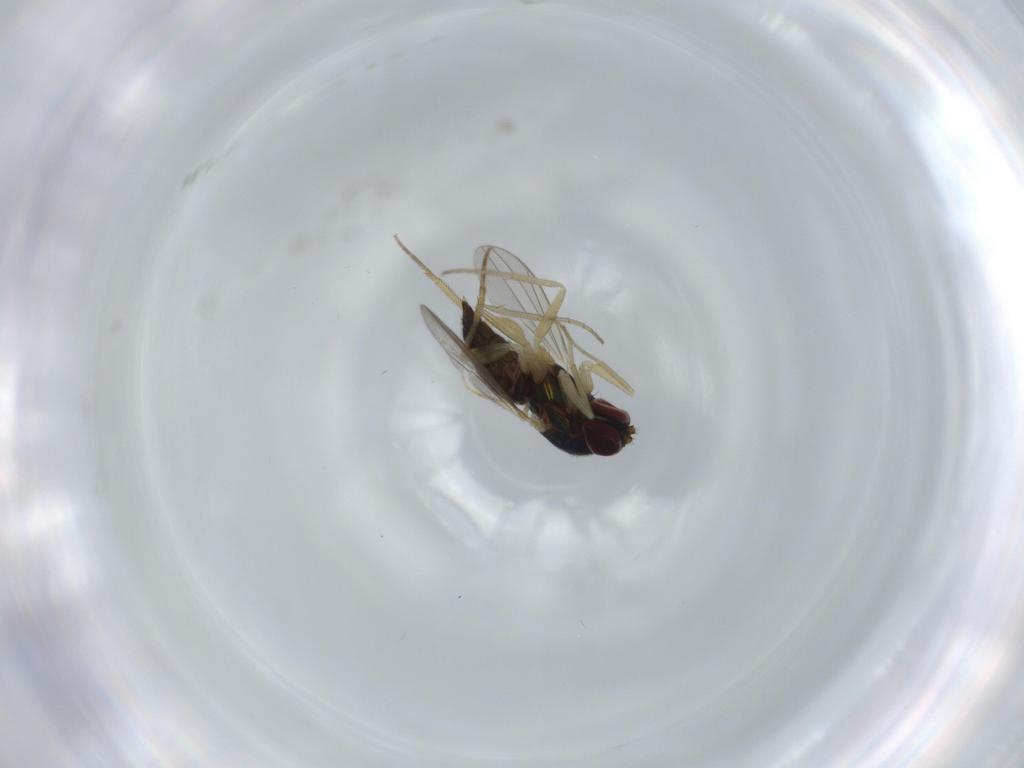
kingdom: Animalia
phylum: Arthropoda
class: Insecta
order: Diptera
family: Dolichopodidae
